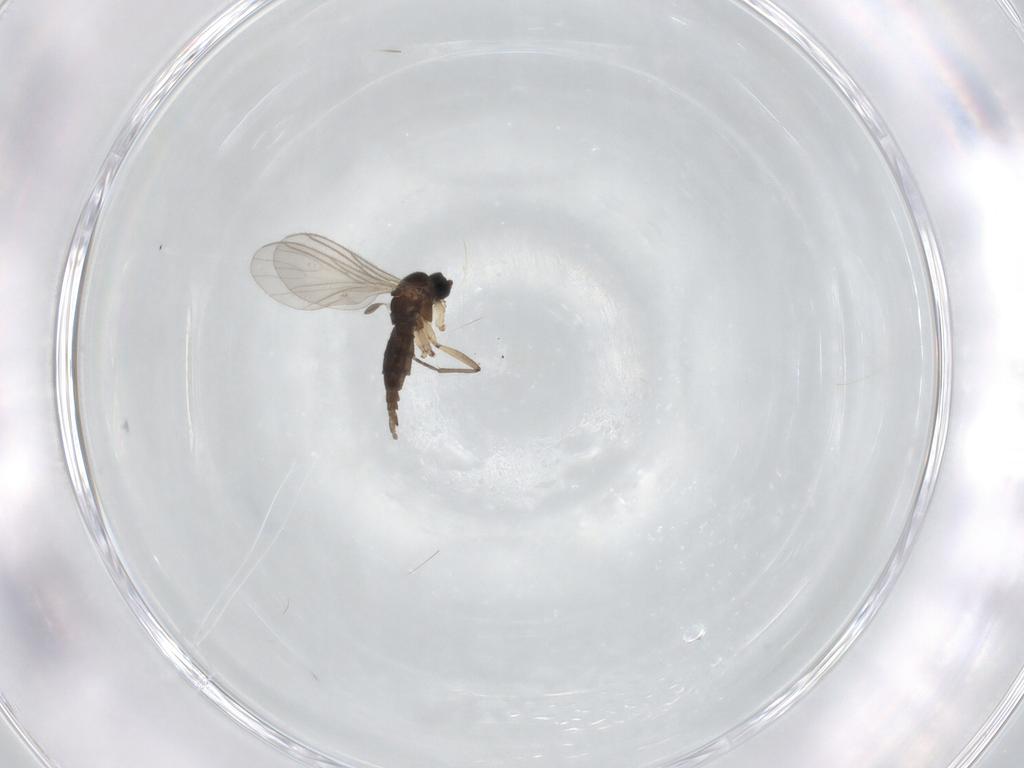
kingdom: Animalia
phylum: Arthropoda
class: Insecta
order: Diptera
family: Sciaridae
